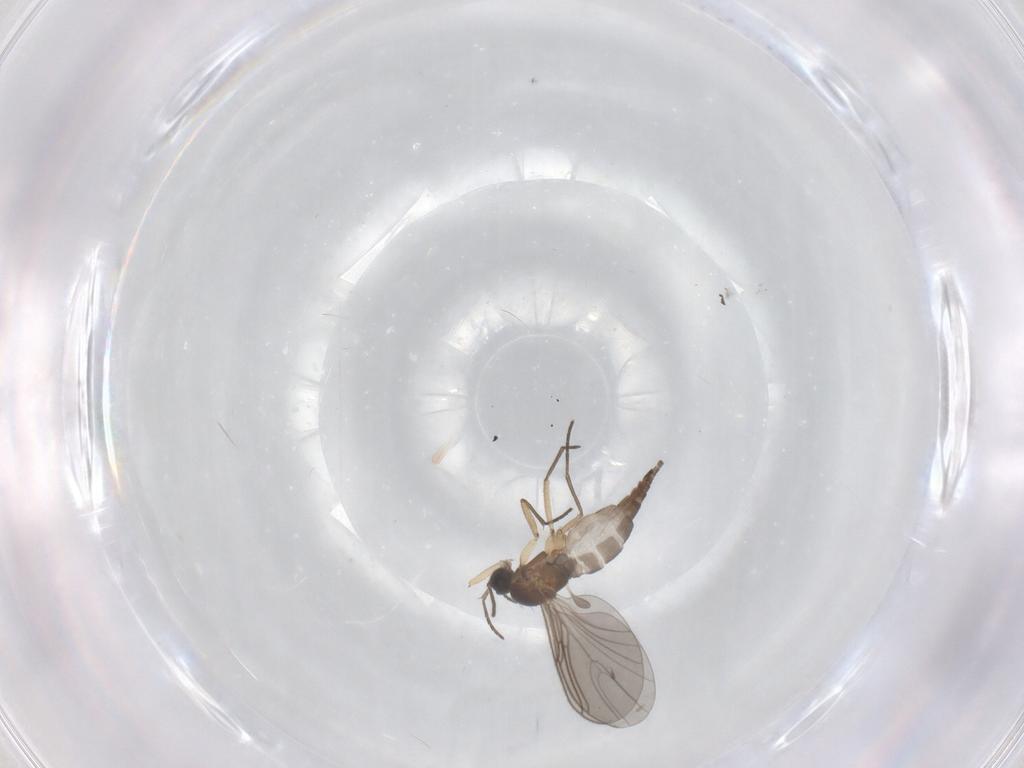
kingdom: Animalia
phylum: Arthropoda
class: Insecta
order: Diptera
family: Sciaridae
